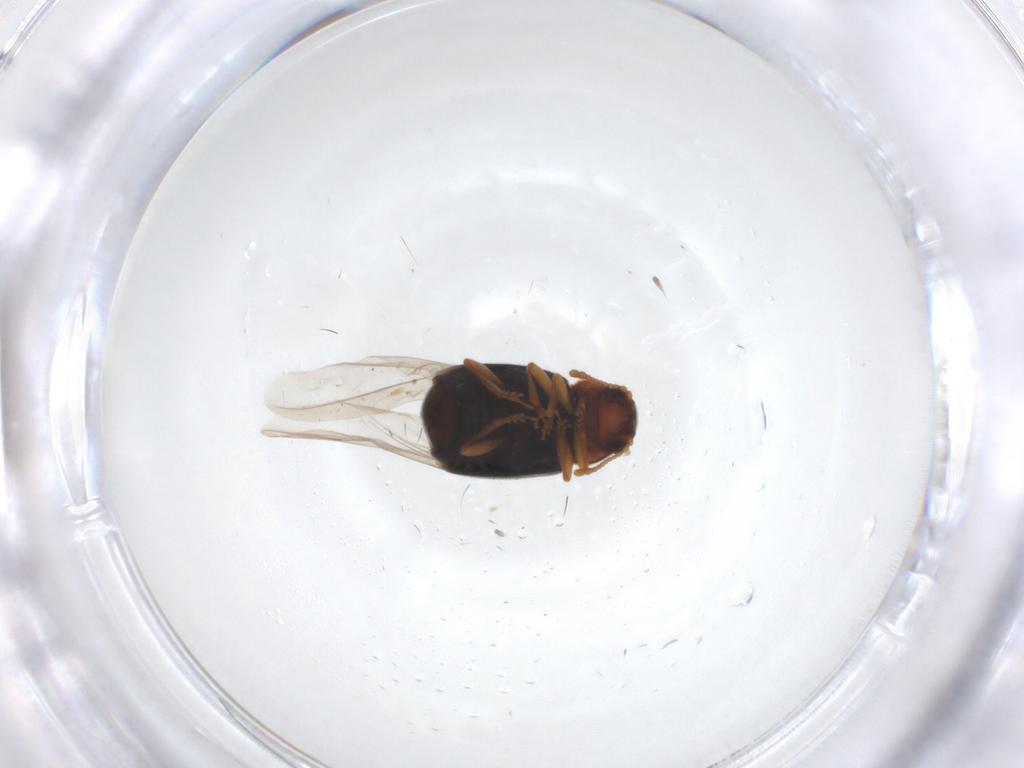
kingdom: Animalia
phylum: Arthropoda
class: Insecta
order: Coleoptera
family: Kateretidae
